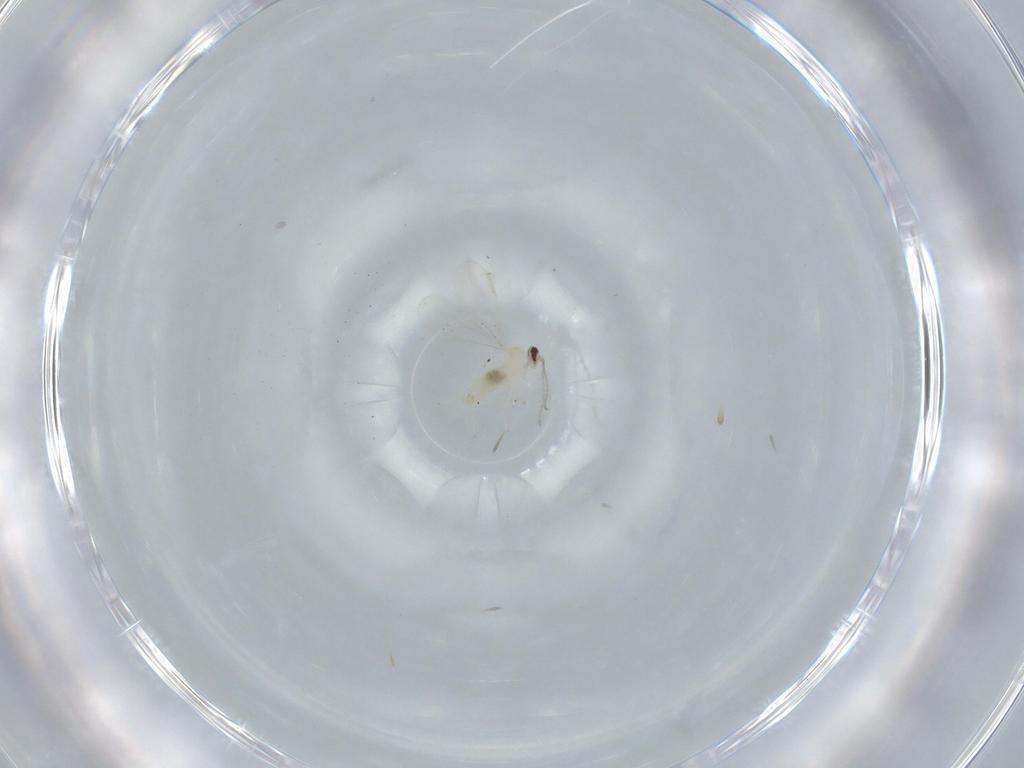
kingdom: Animalia
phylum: Arthropoda
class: Insecta
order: Diptera
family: Cecidomyiidae
